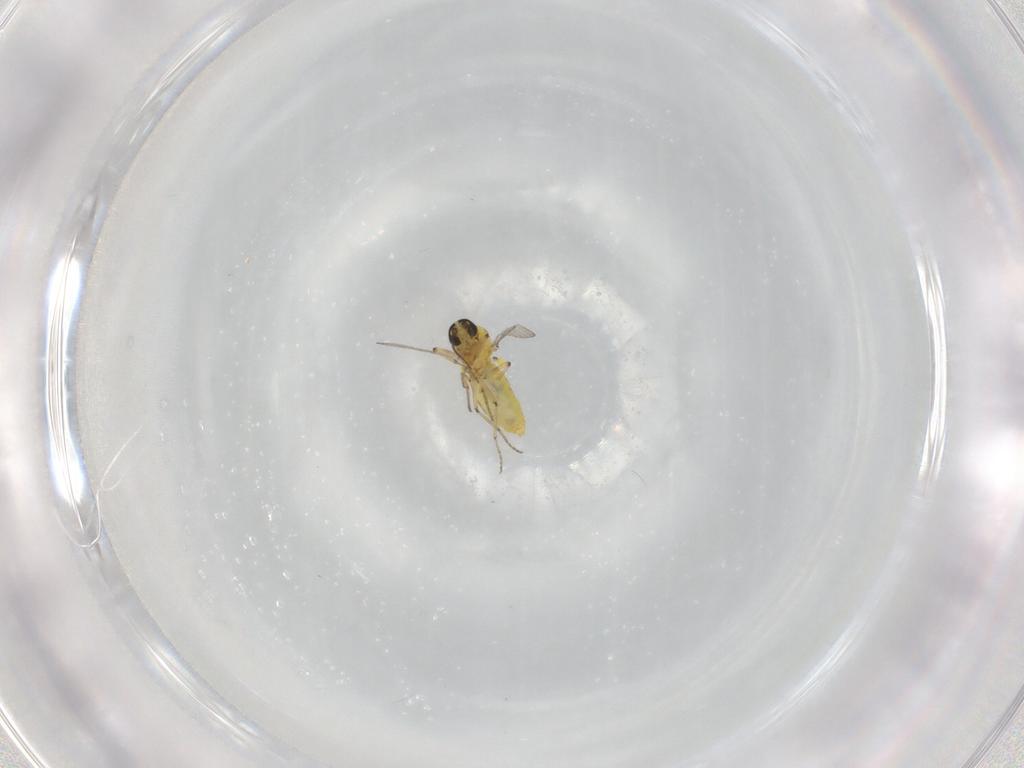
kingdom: Animalia
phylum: Arthropoda
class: Insecta
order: Diptera
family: Ceratopogonidae
